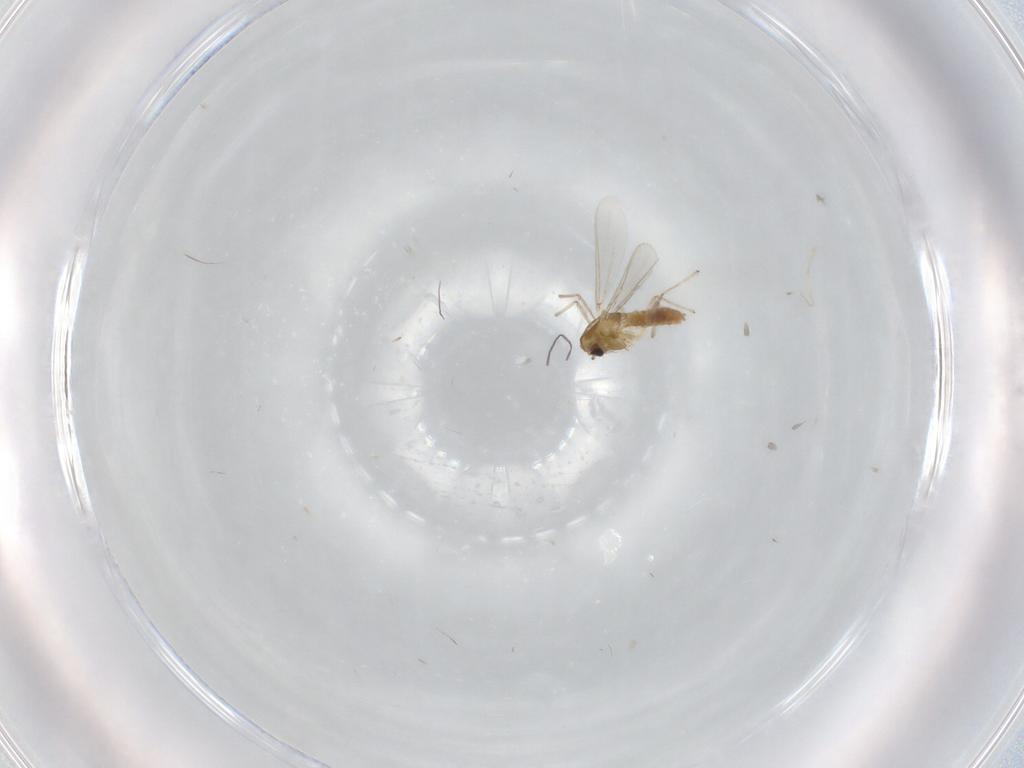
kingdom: Animalia
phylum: Arthropoda
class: Insecta
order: Diptera
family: Chironomidae
